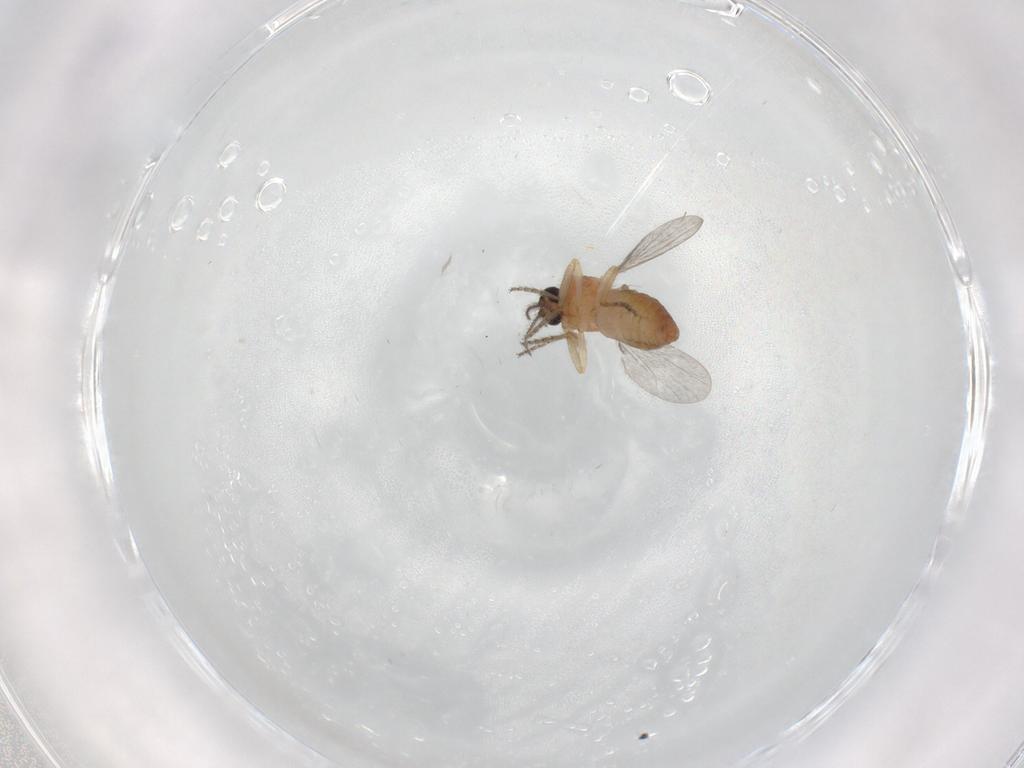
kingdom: Animalia
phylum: Arthropoda
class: Insecta
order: Diptera
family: Ceratopogonidae
